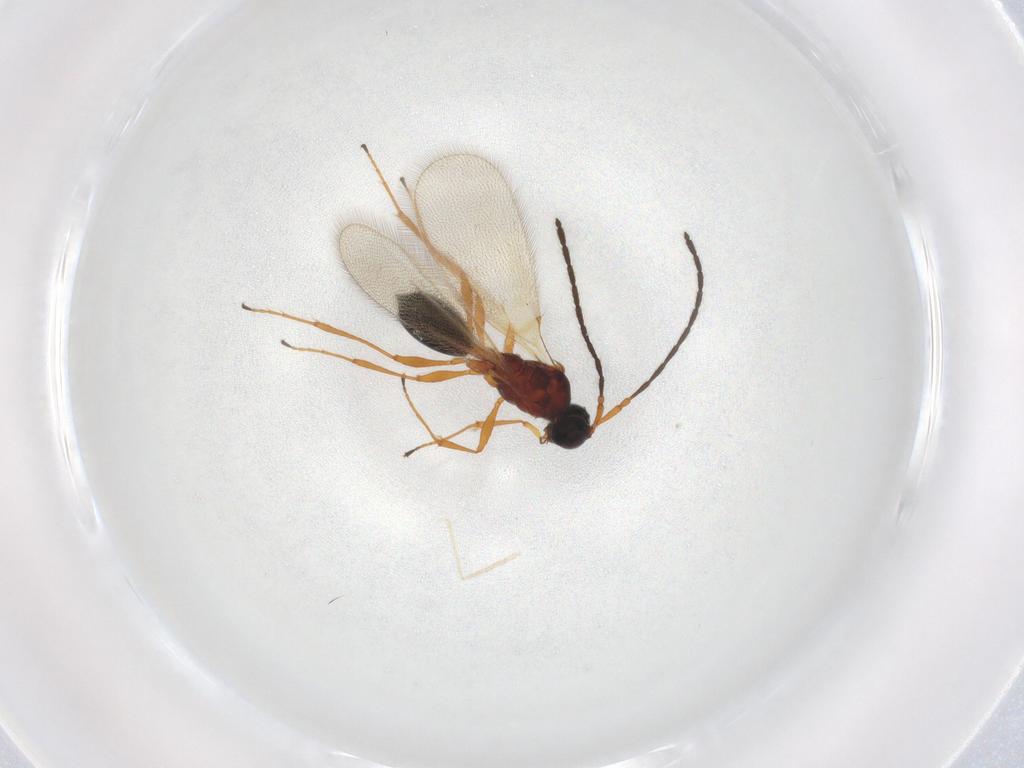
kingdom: Animalia
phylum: Arthropoda
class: Insecta
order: Hymenoptera
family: Diapriidae
